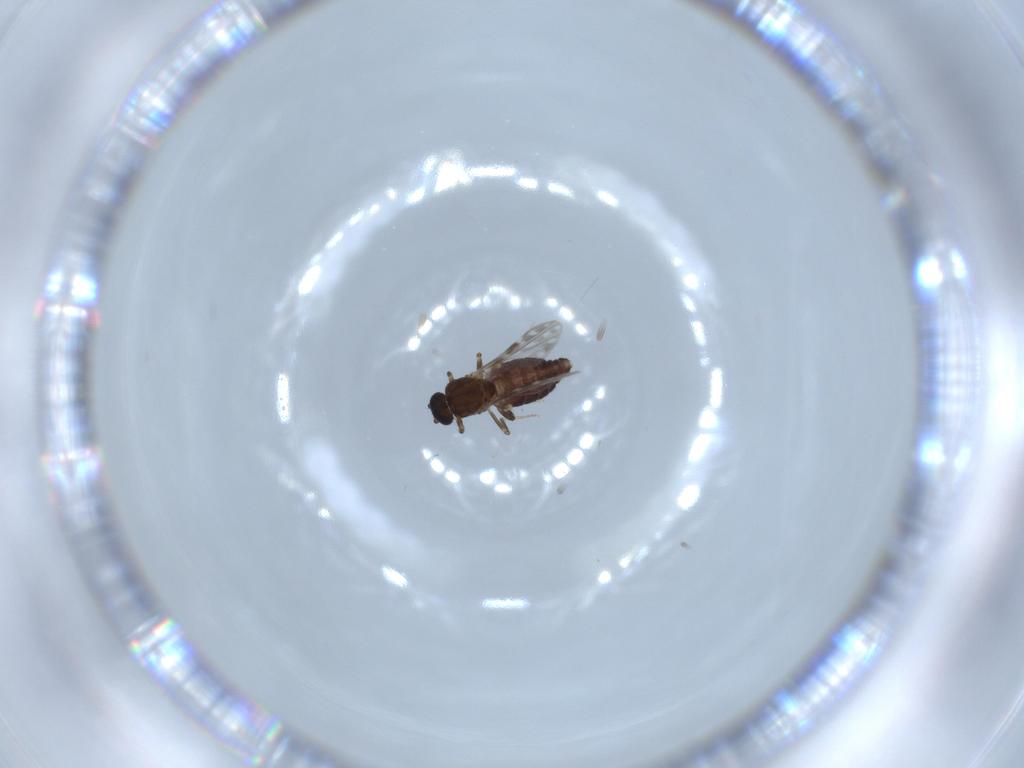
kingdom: Animalia
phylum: Arthropoda
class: Insecta
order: Diptera
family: Ceratopogonidae
